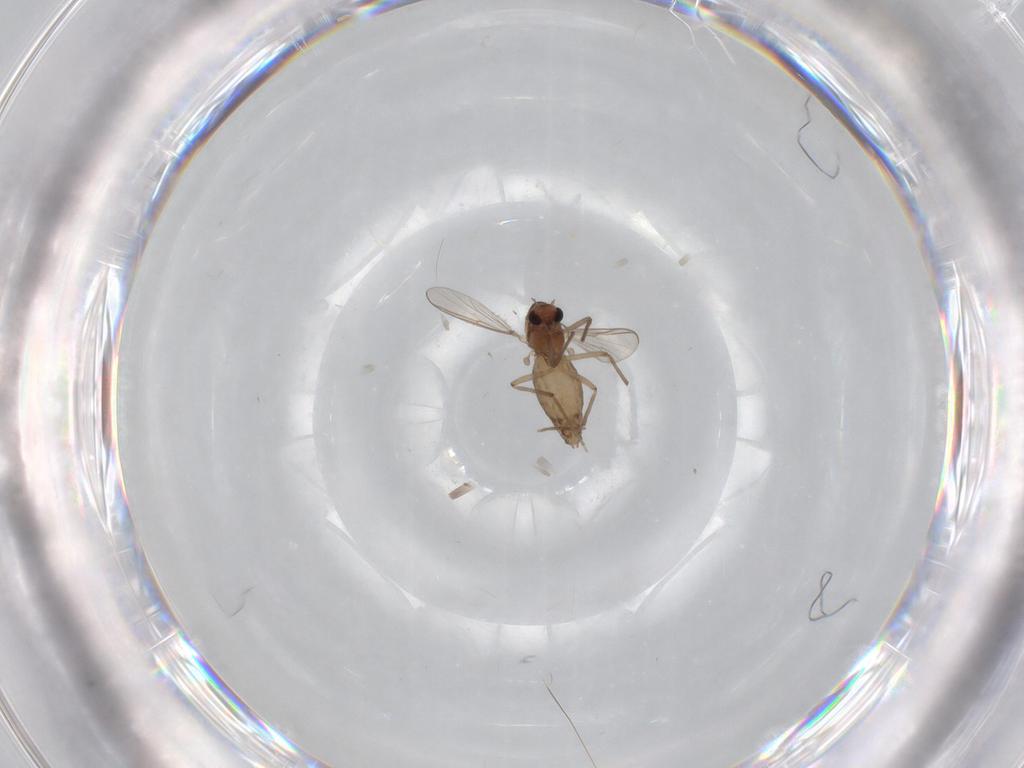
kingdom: Animalia
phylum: Arthropoda
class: Insecta
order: Diptera
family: Chironomidae
